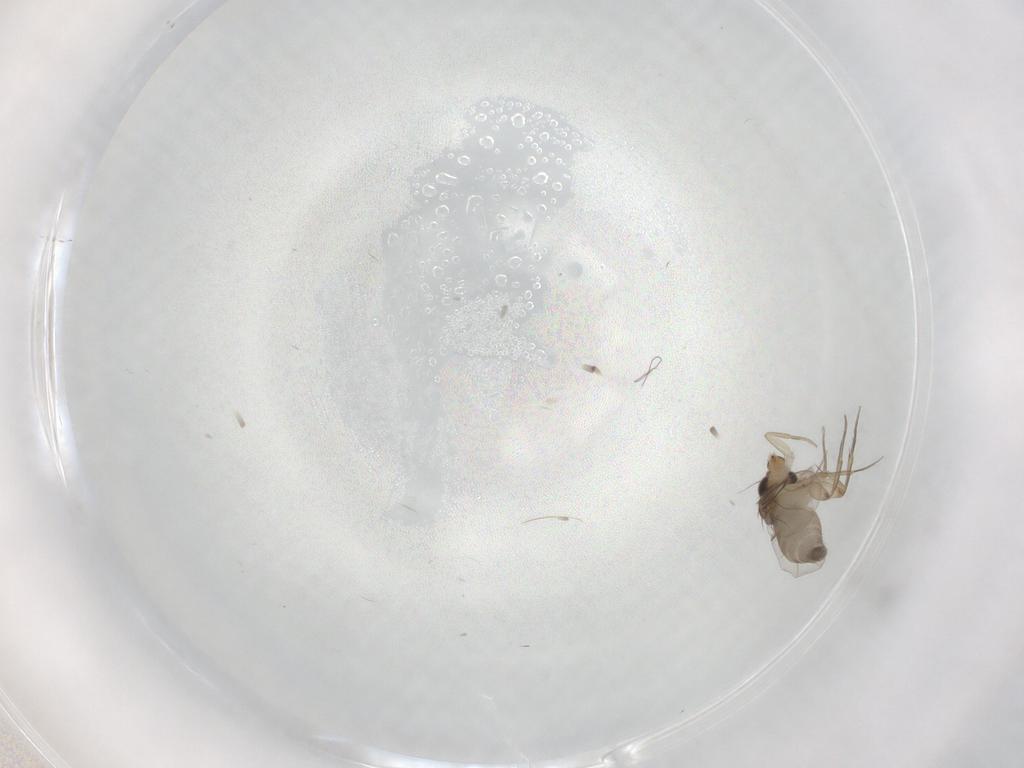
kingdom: Animalia
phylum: Arthropoda
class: Insecta
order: Diptera
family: Phoridae
